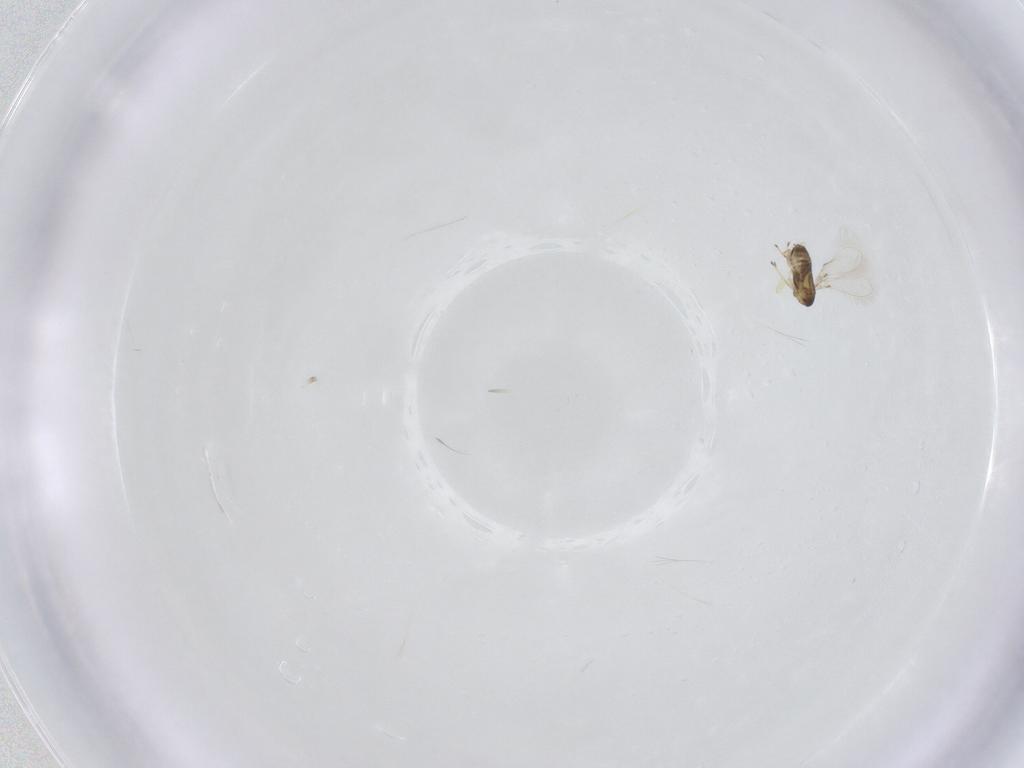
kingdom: Animalia
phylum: Arthropoda
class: Insecta
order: Hymenoptera
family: Mymaridae
